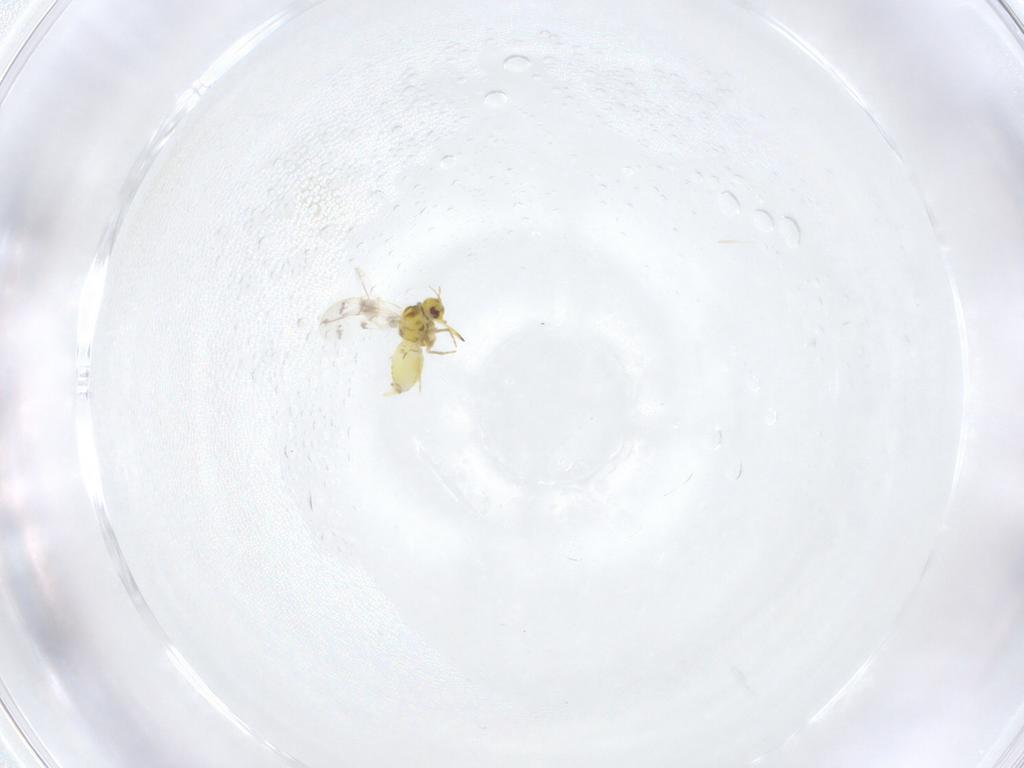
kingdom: Animalia
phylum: Arthropoda
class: Insecta
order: Hemiptera
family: Aleyrodidae
